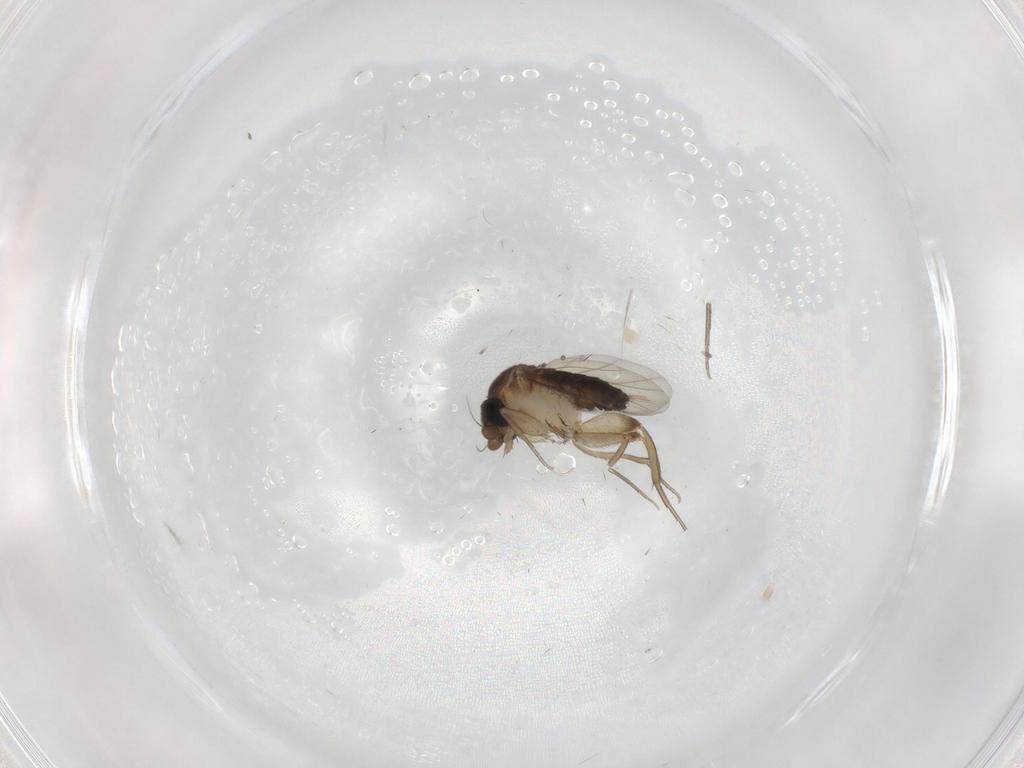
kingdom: Animalia
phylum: Arthropoda
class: Insecta
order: Diptera
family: Phoridae
